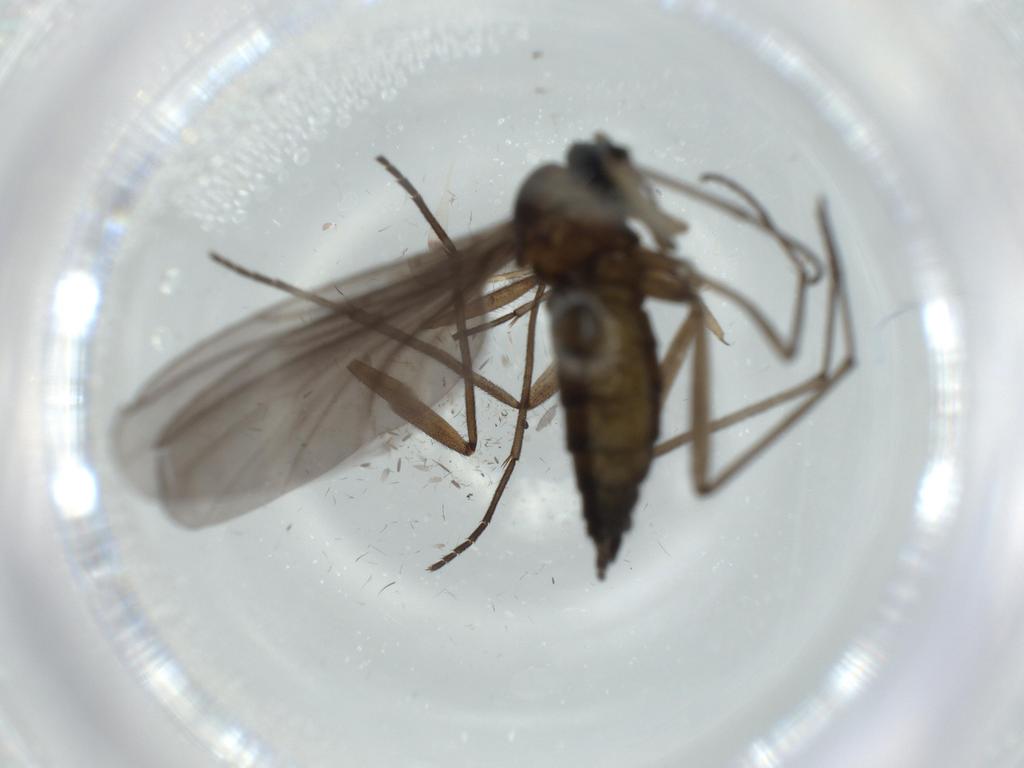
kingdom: Animalia
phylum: Arthropoda
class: Insecta
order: Diptera
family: Sciaridae
